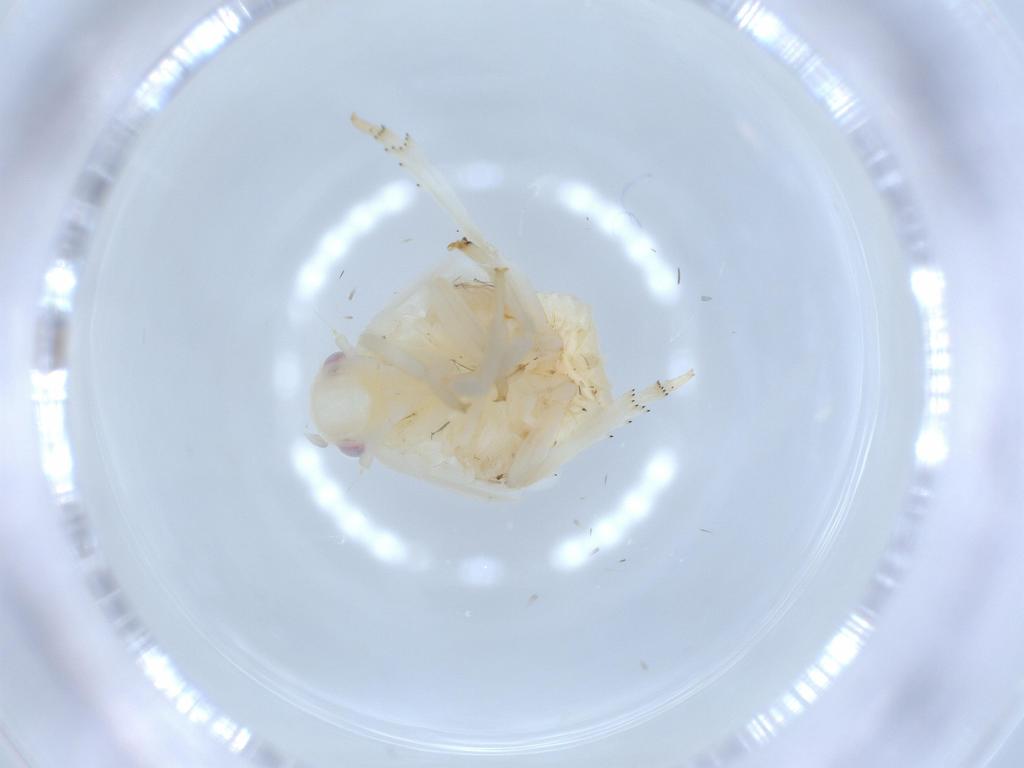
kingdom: Animalia
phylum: Arthropoda
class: Insecta
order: Hemiptera
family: Flatidae
